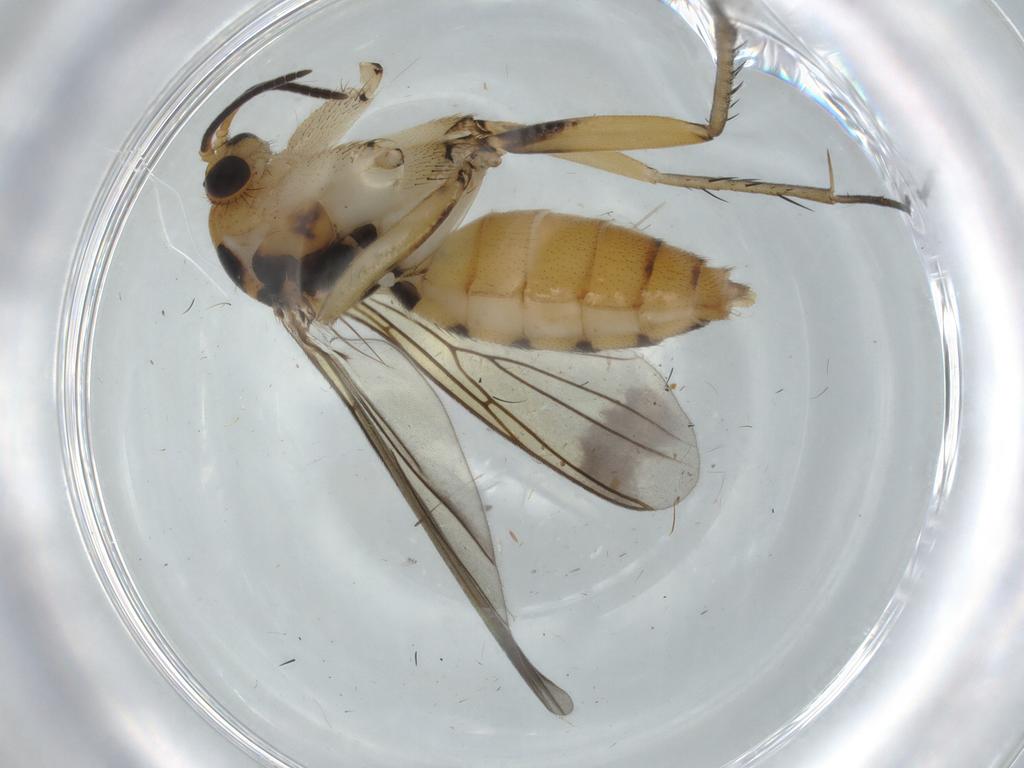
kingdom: Animalia
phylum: Arthropoda
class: Insecta
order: Diptera
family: Mycetophilidae
